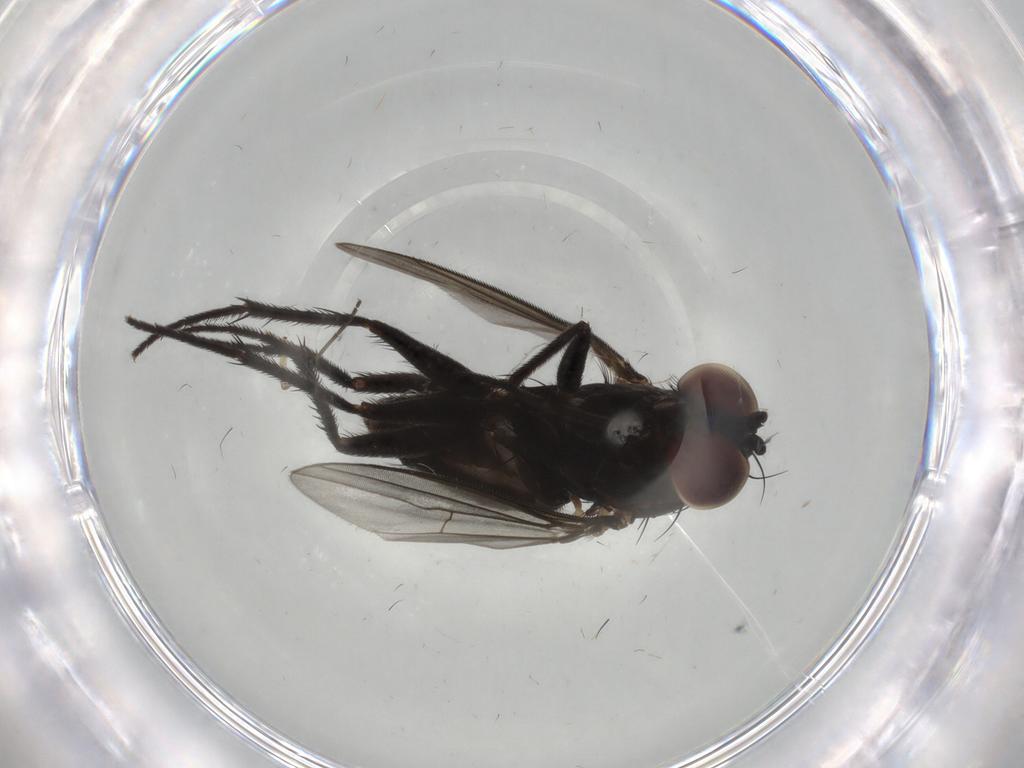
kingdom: Animalia
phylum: Arthropoda
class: Insecta
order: Diptera
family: Dolichopodidae
